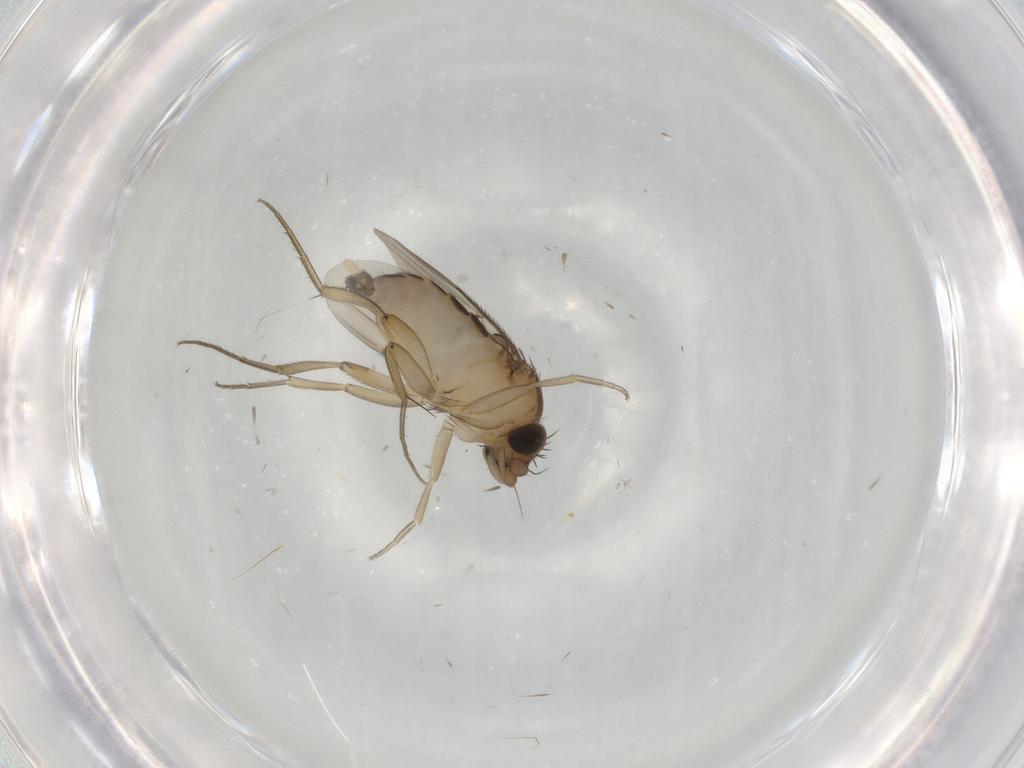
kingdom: Animalia
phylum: Arthropoda
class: Insecta
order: Diptera
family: Phoridae
